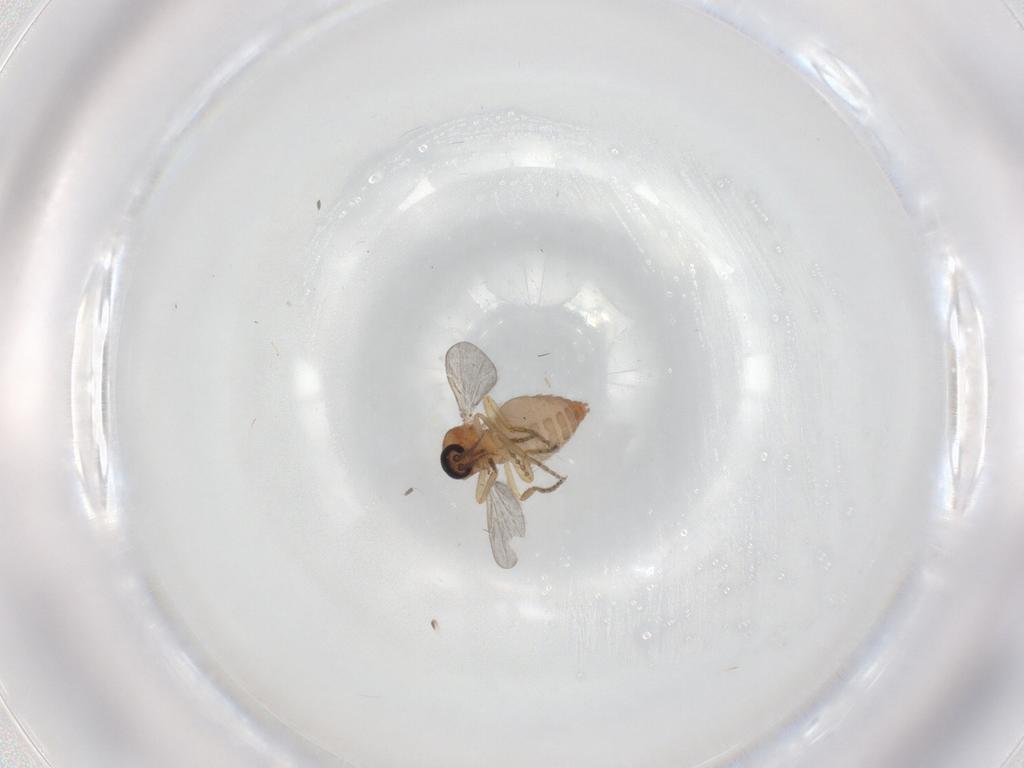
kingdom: Animalia
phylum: Arthropoda
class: Insecta
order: Diptera
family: Ceratopogonidae
